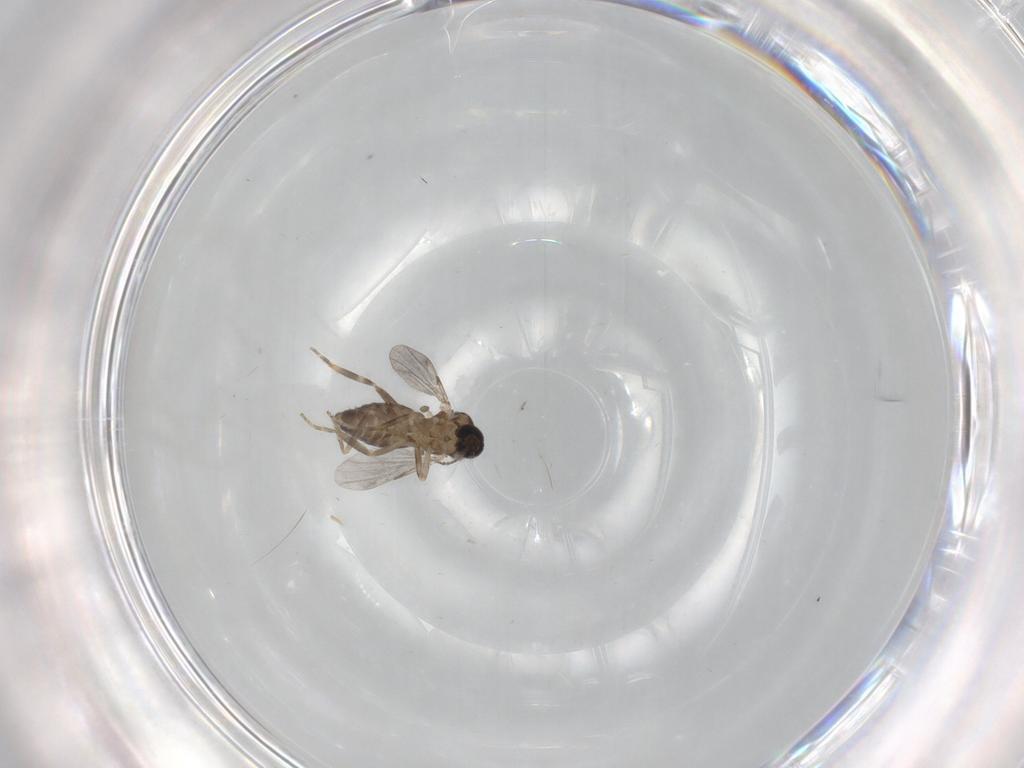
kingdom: Animalia
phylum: Arthropoda
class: Insecta
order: Diptera
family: Ceratopogonidae
